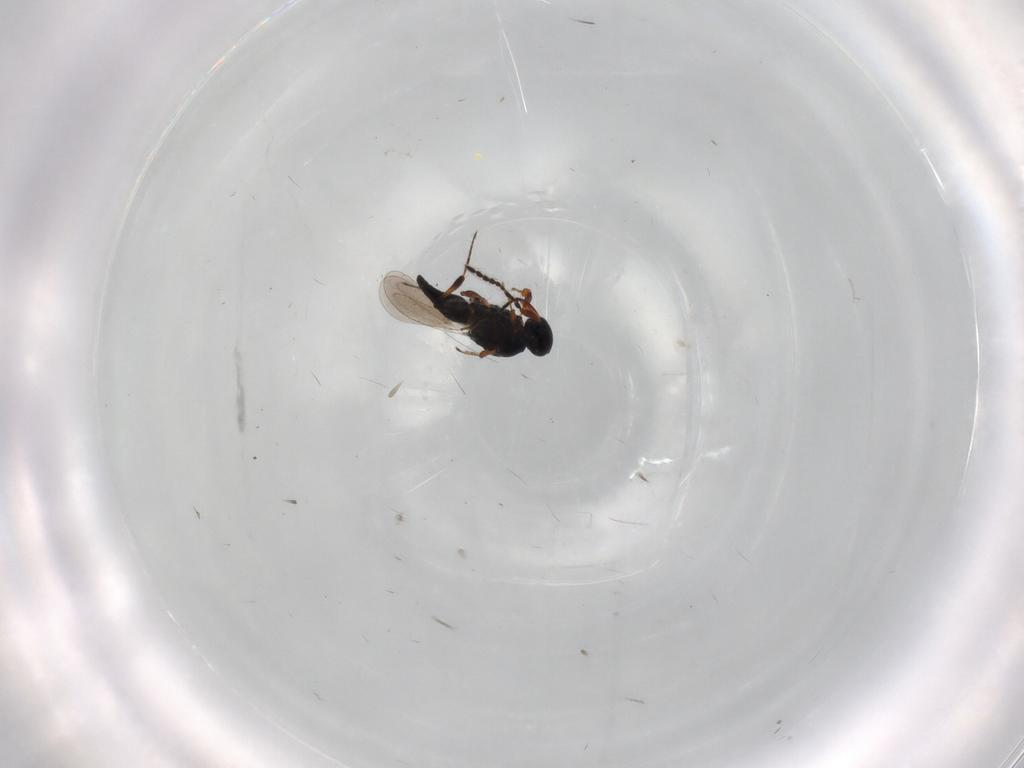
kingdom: Animalia
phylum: Arthropoda
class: Insecta
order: Hymenoptera
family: Platygastridae
